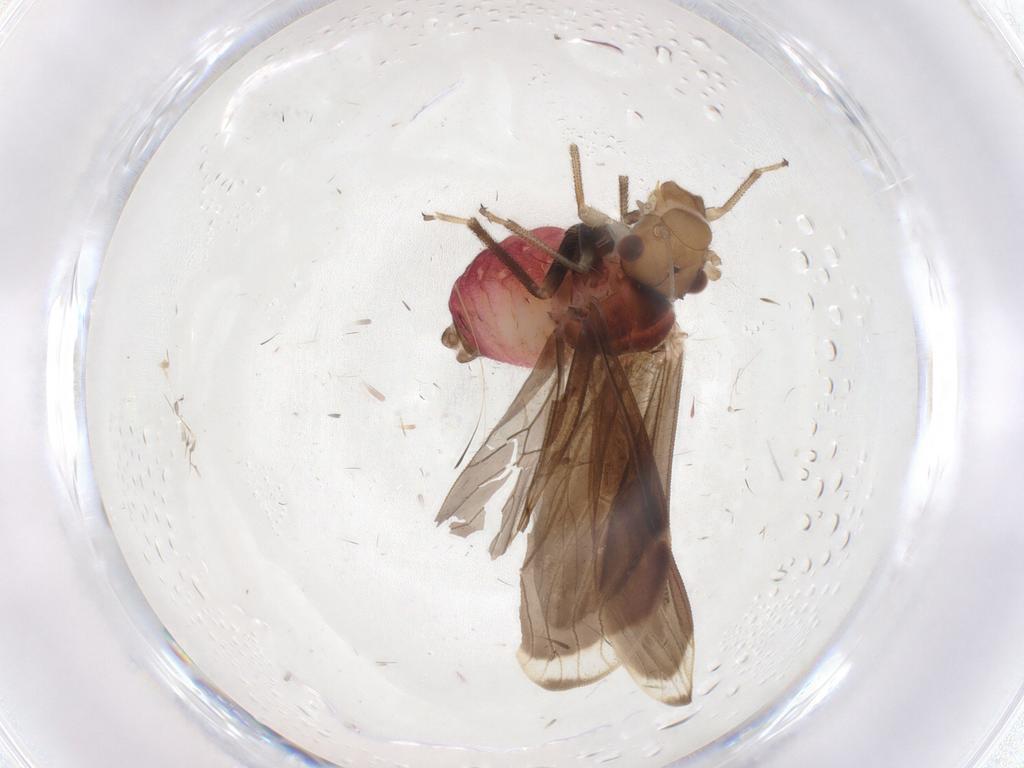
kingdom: Animalia
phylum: Arthropoda
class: Insecta
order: Psocodea
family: Amphipsocidae
